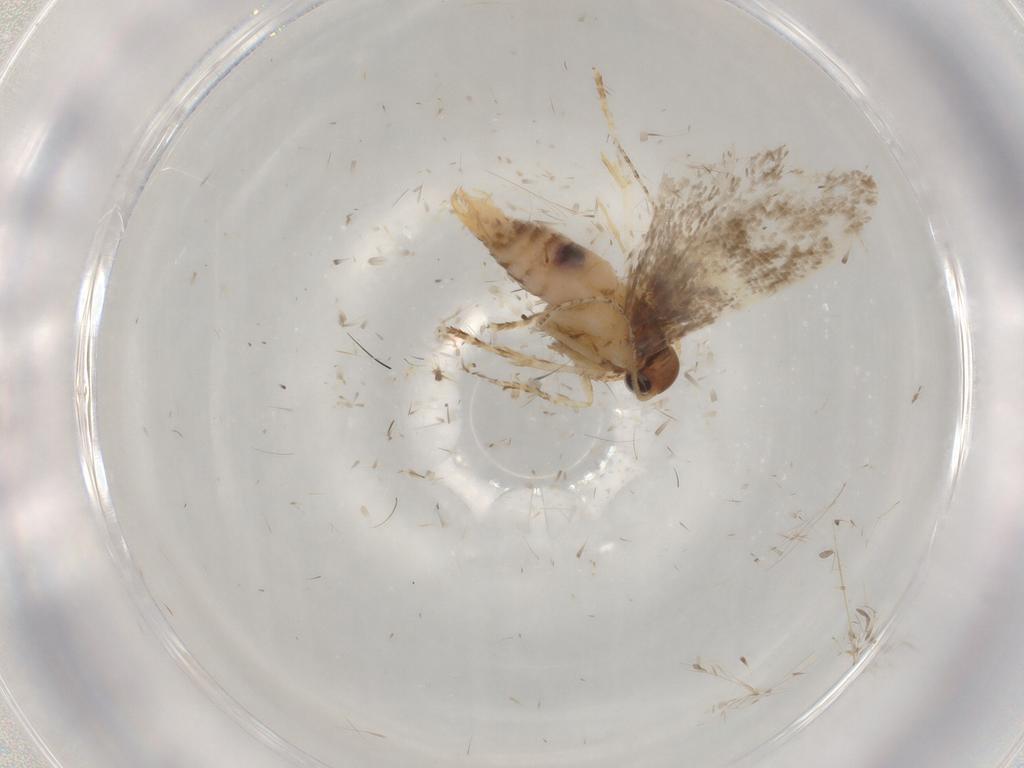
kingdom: Animalia
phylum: Arthropoda
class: Insecta
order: Lepidoptera
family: Oecophoridae
